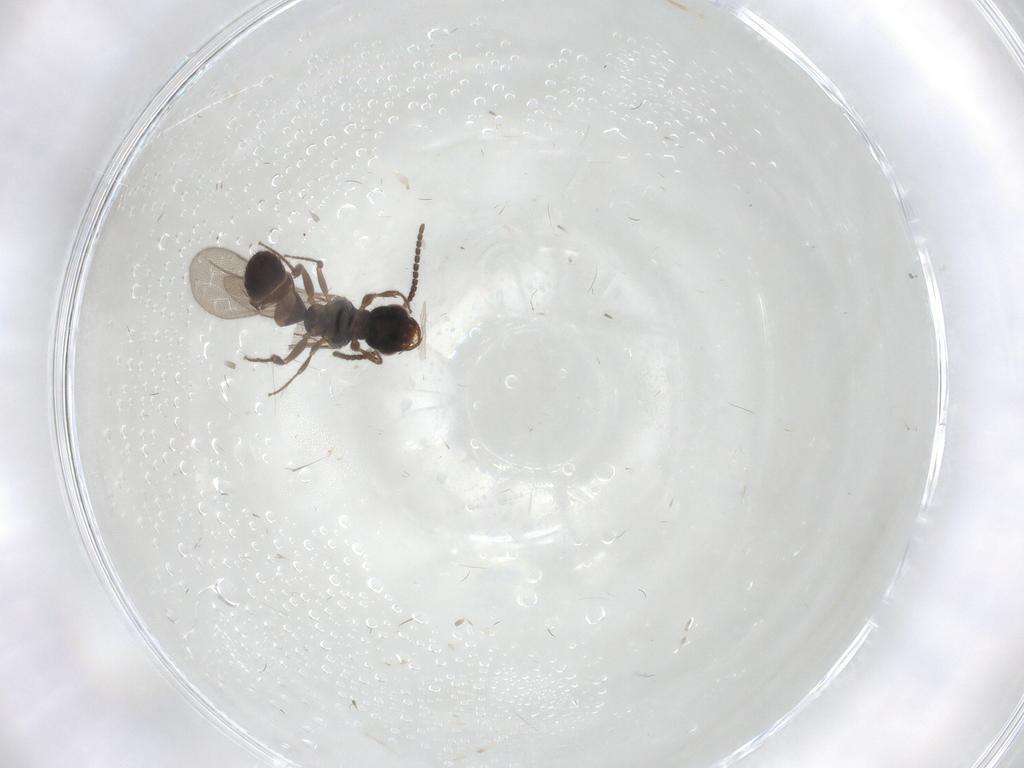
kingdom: Animalia
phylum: Arthropoda
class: Insecta
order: Hymenoptera
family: Bethylidae
